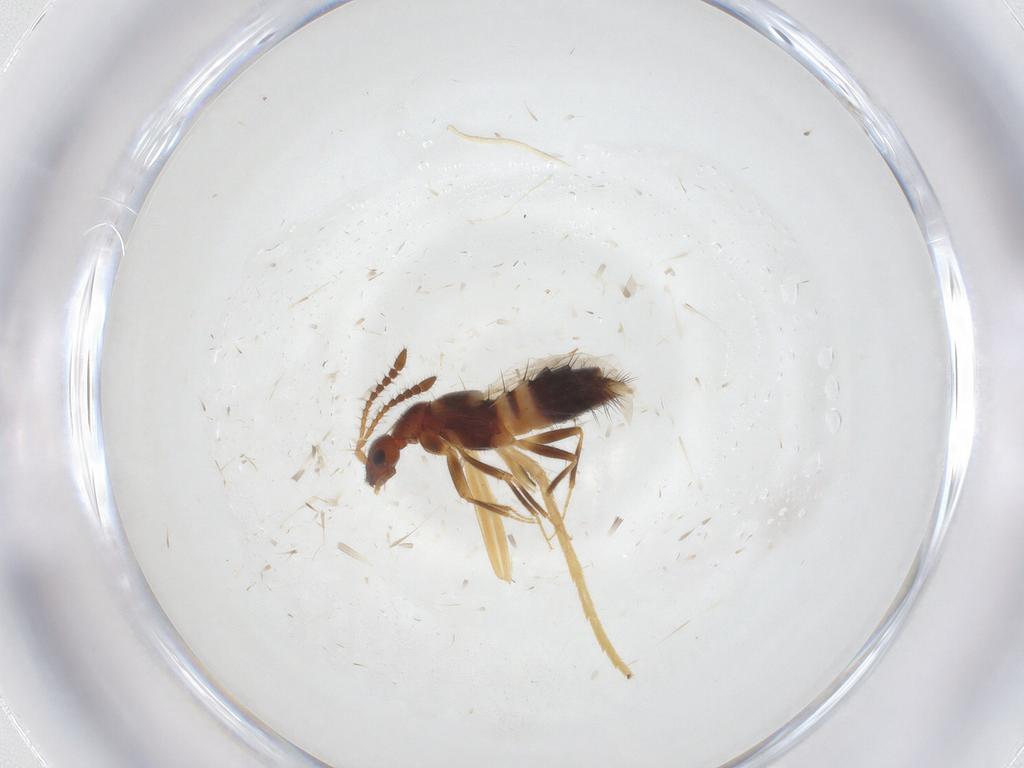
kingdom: Animalia
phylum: Arthropoda
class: Insecta
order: Coleoptera
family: Staphylinidae
